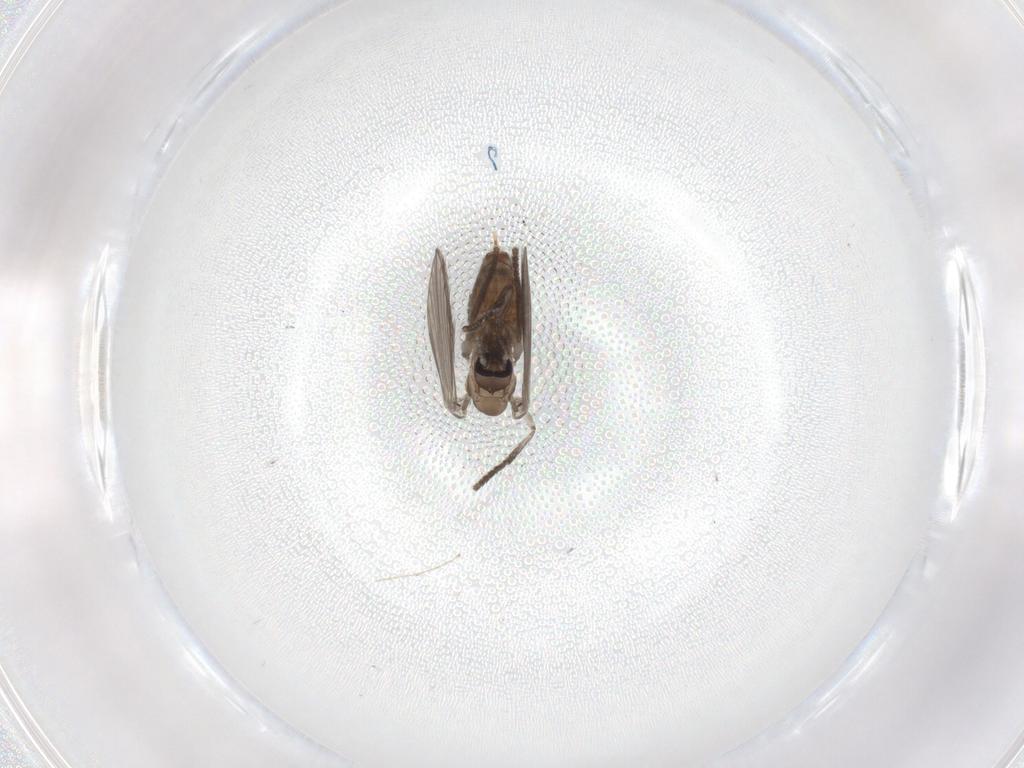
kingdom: Animalia
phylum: Arthropoda
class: Insecta
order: Diptera
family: Psychodidae
